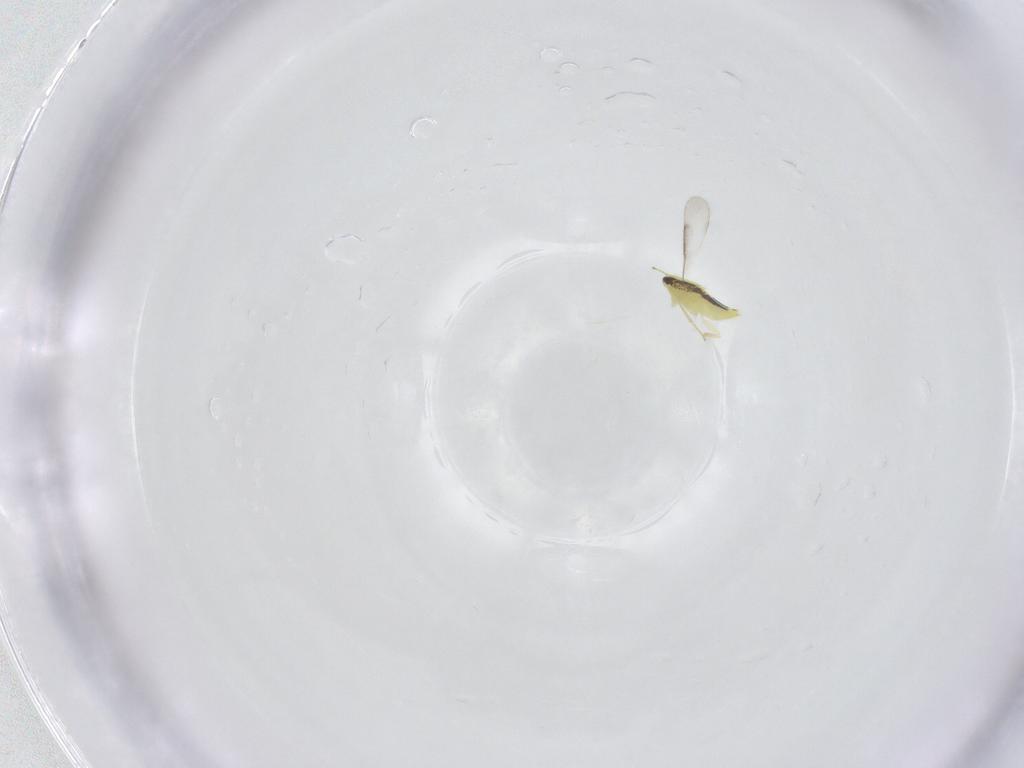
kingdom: Animalia
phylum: Arthropoda
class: Insecta
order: Hymenoptera
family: Aphelinidae
